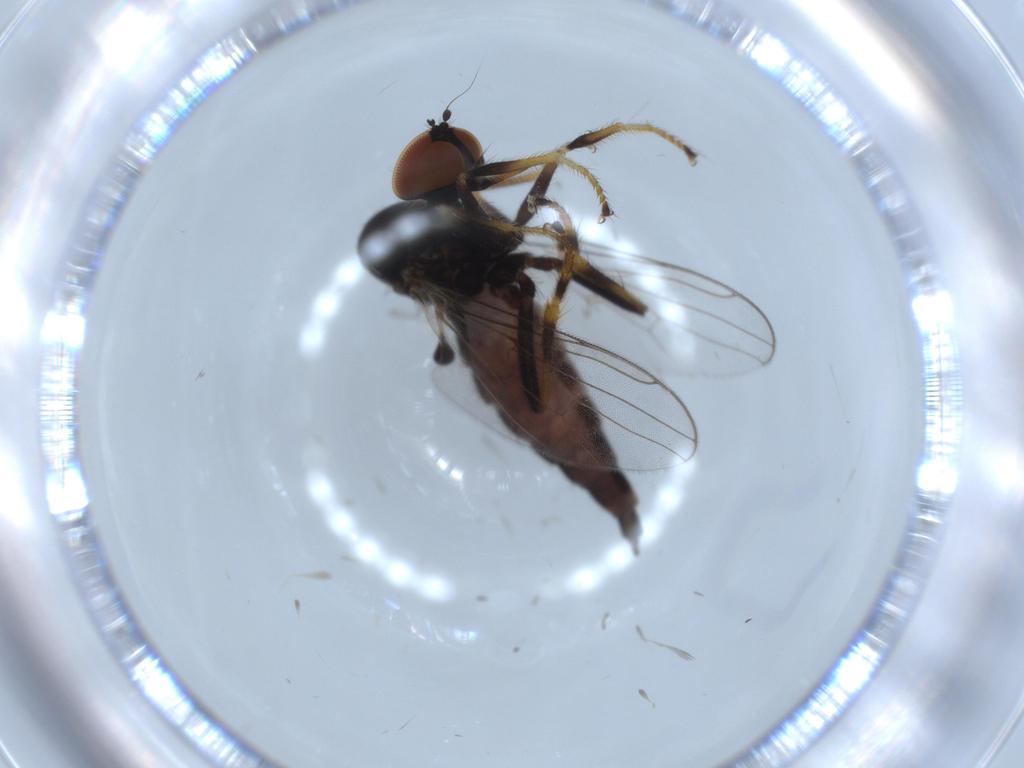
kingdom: Animalia
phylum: Arthropoda
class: Insecta
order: Diptera
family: Hybotidae
